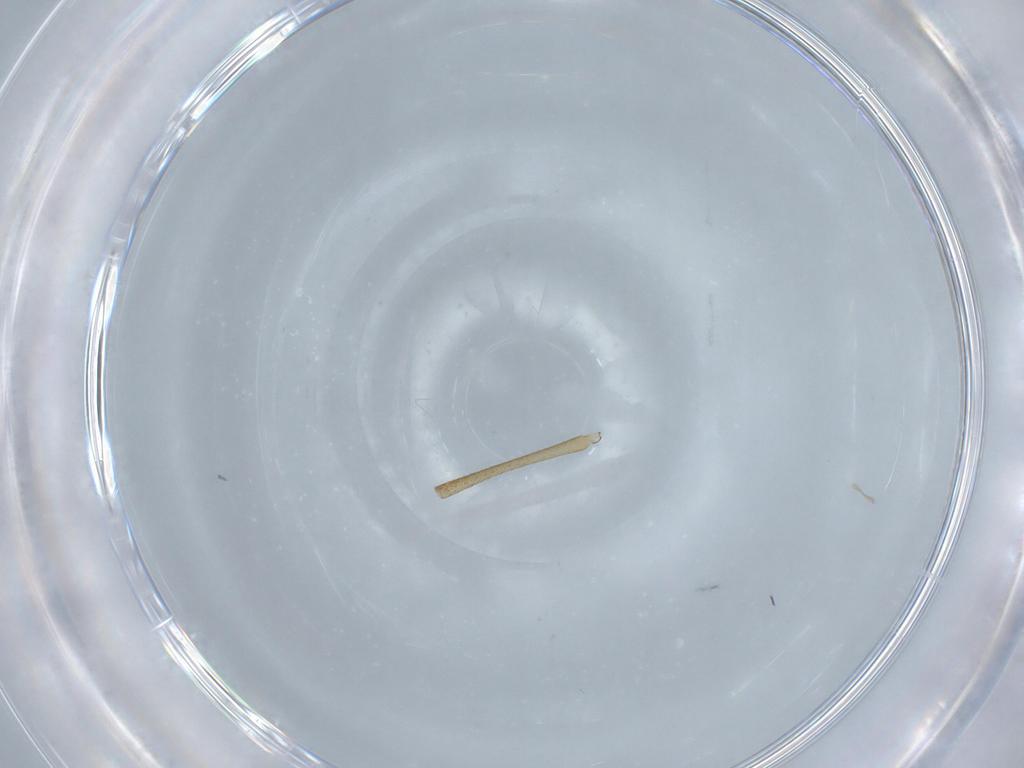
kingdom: Animalia
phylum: Arthropoda
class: Insecta
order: Diptera
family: Limoniidae
